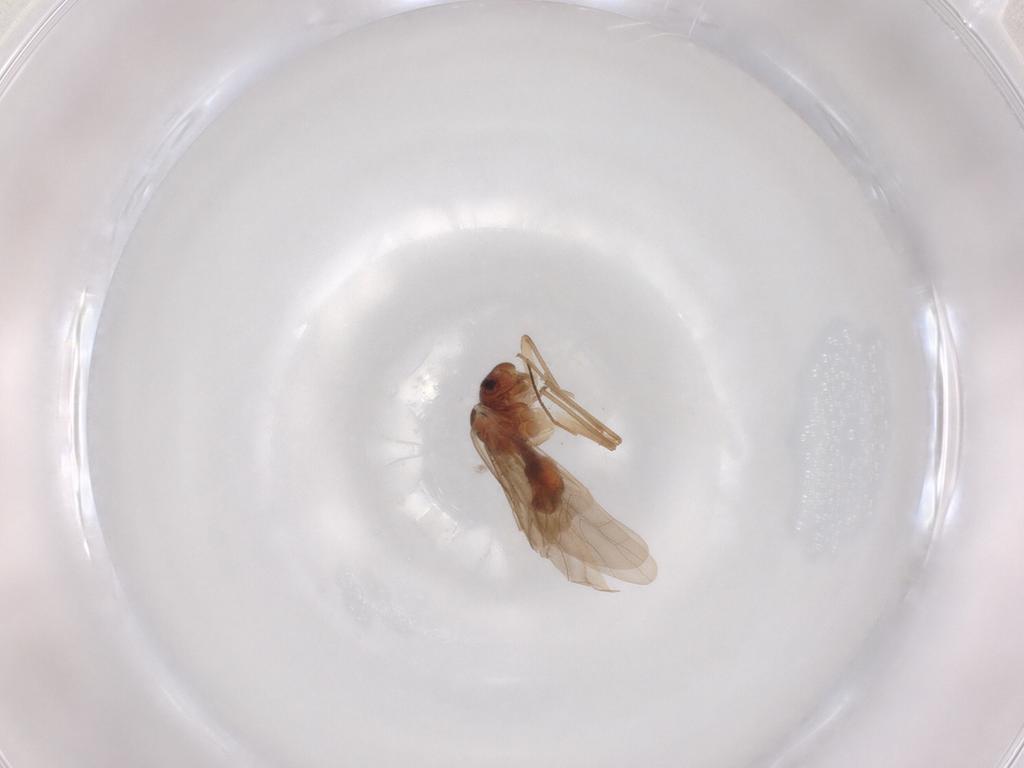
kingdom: Animalia
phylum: Arthropoda
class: Insecta
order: Psocodea
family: Caeciliusidae
